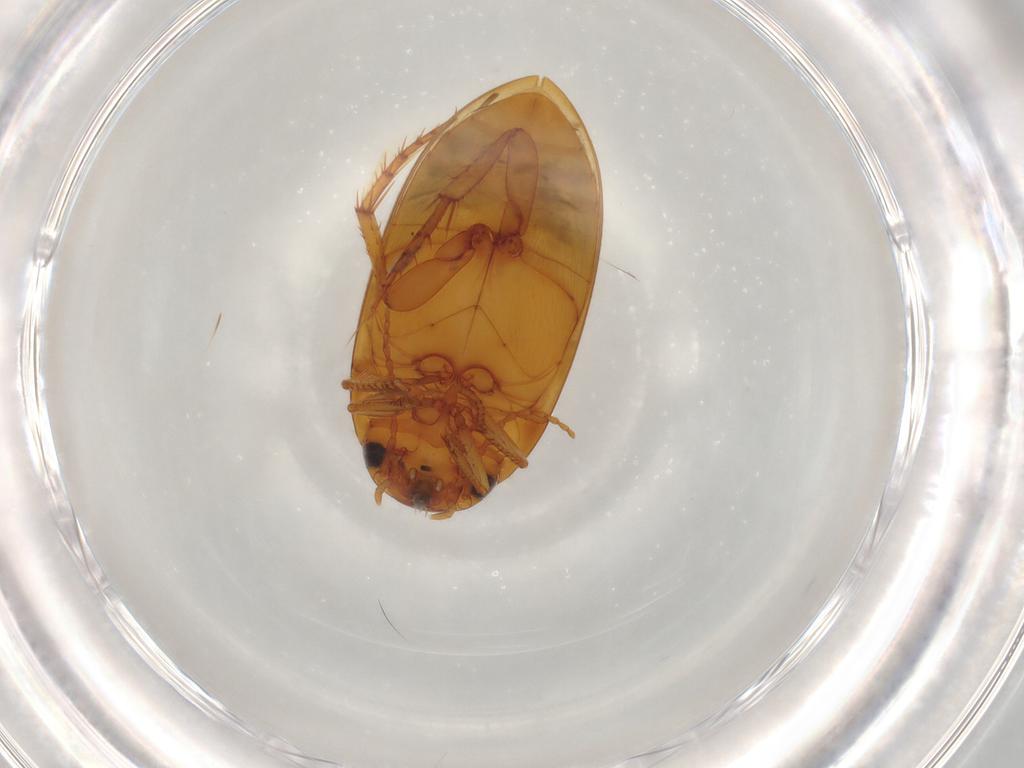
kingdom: Animalia
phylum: Arthropoda
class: Insecta
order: Coleoptera
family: Dytiscidae
